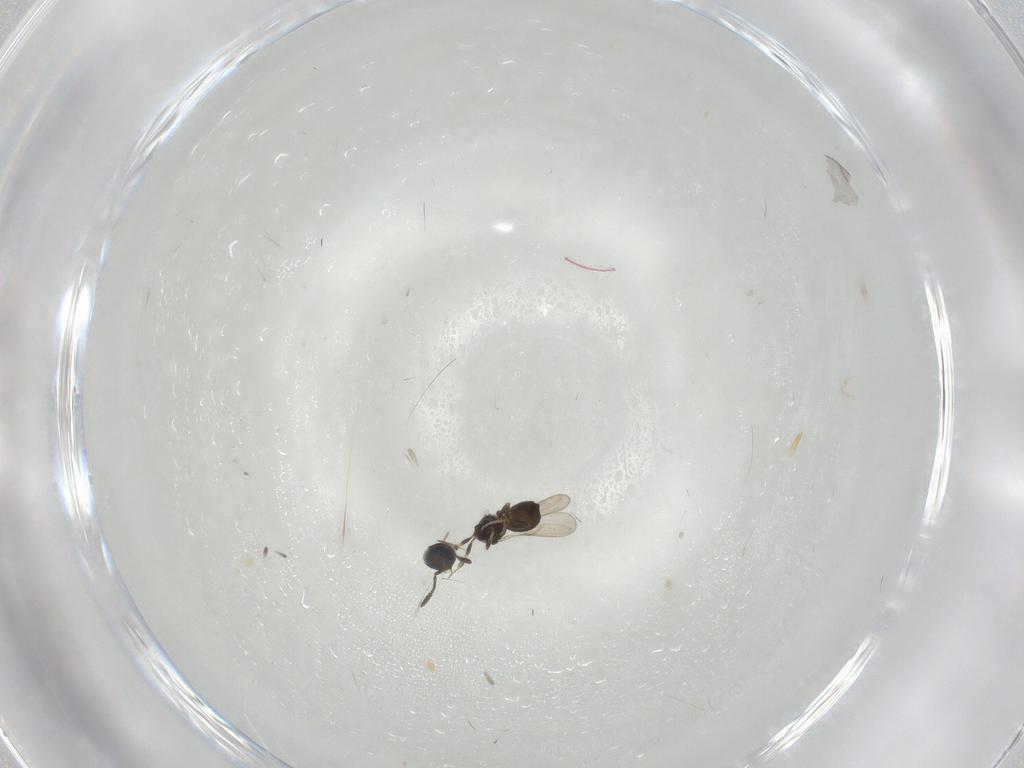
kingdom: Animalia
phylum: Arthropoda
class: Insecta
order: Hymenoptera
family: Scelionidae
